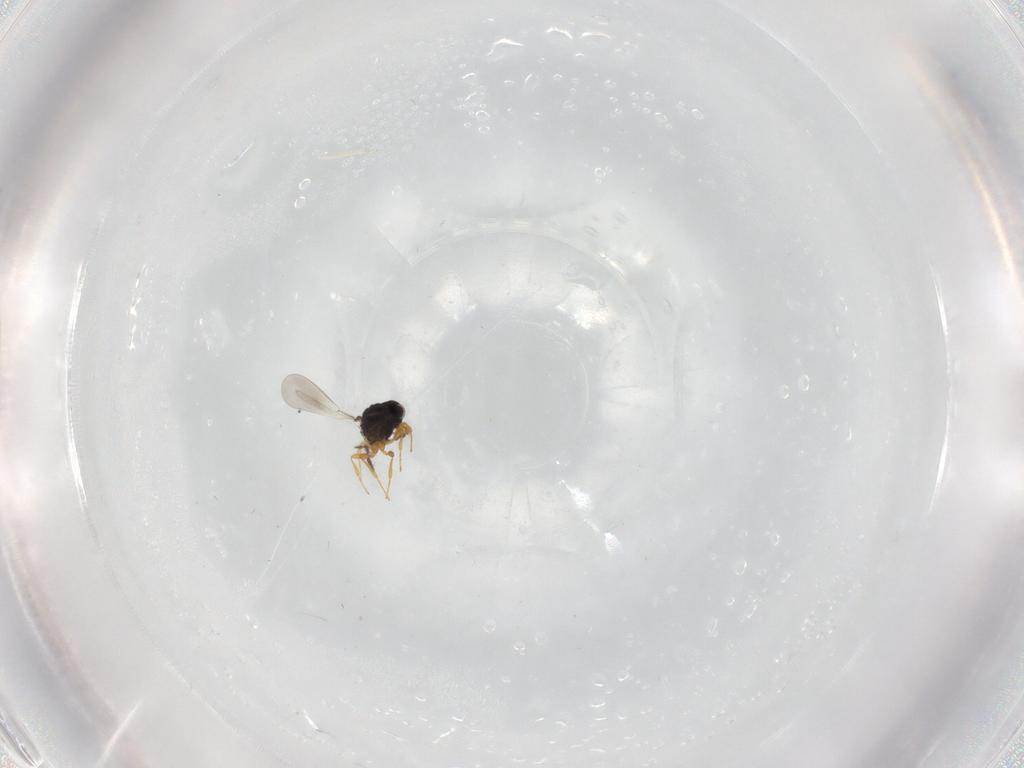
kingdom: Animalia
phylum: Arthropoda
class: Insecta
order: Hymenoptera
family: Platygastridae
